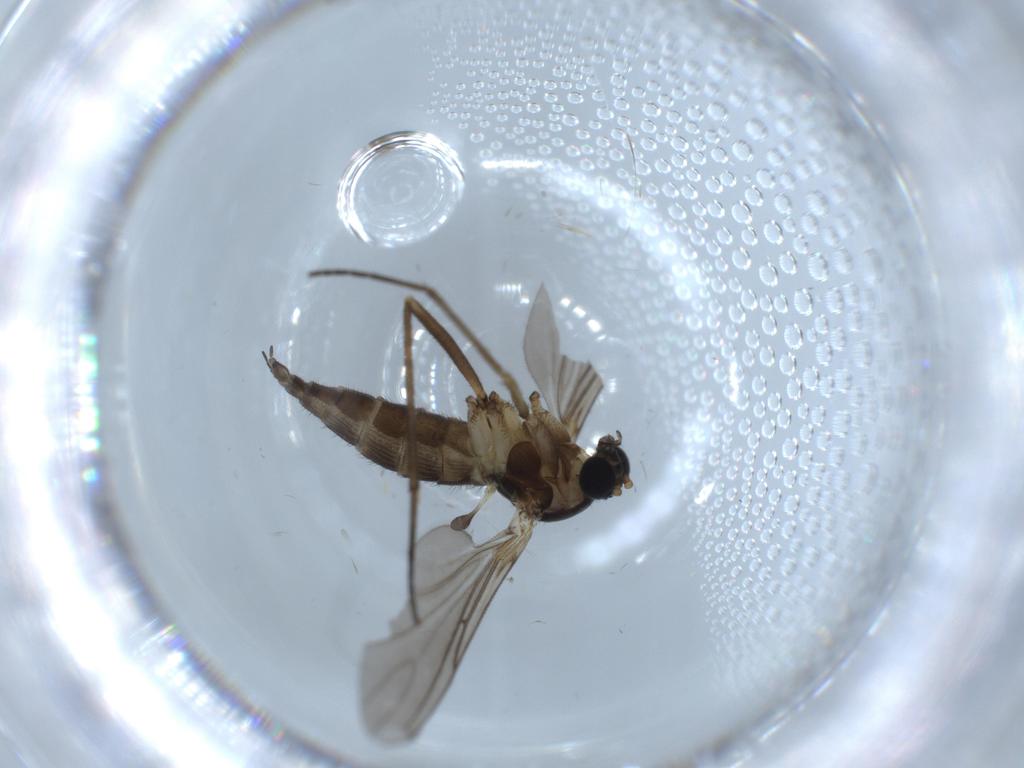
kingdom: Animalia
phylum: Arthropoda
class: Insecta
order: Diptera
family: Sciaridae
